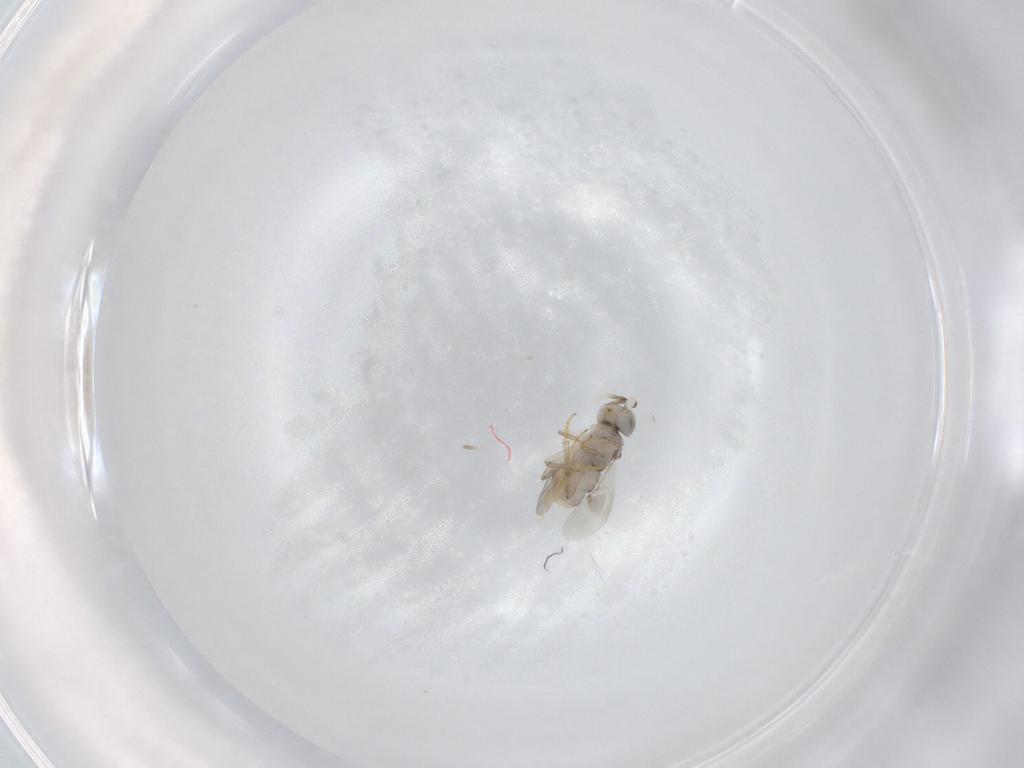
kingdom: Animalia
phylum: Arthropoda
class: Insecta
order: Hymenoptera
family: Encyrtidae
